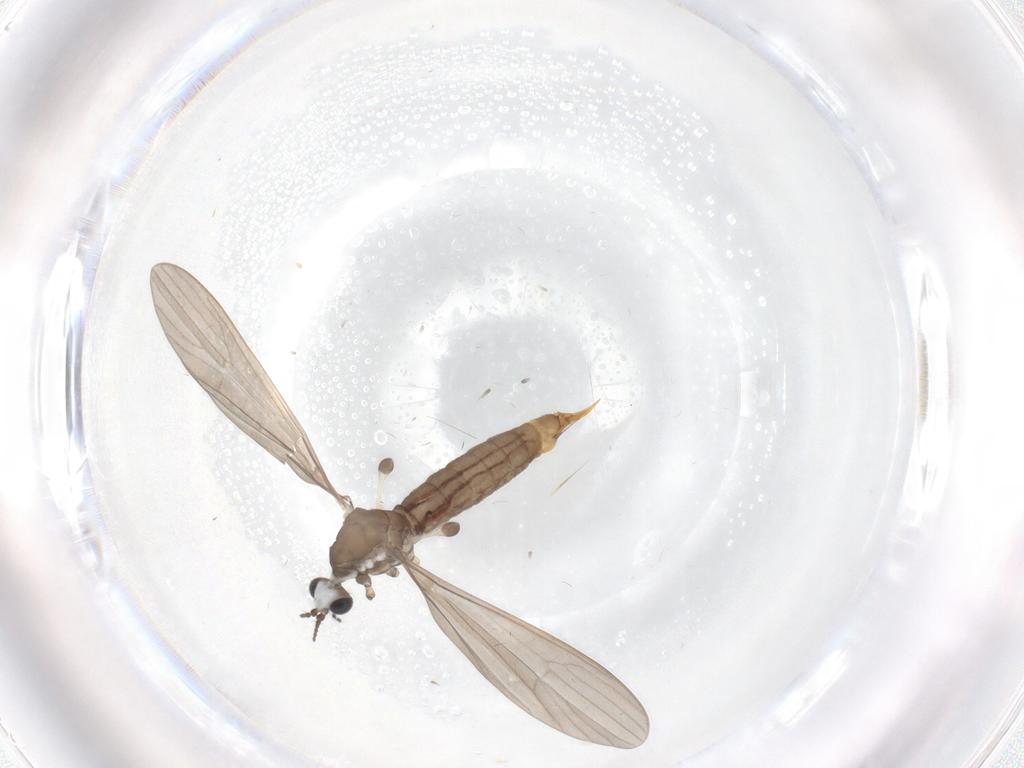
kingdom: Animalia
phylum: Arthropoda
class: Insecta
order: Diptera
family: Limoniidae
